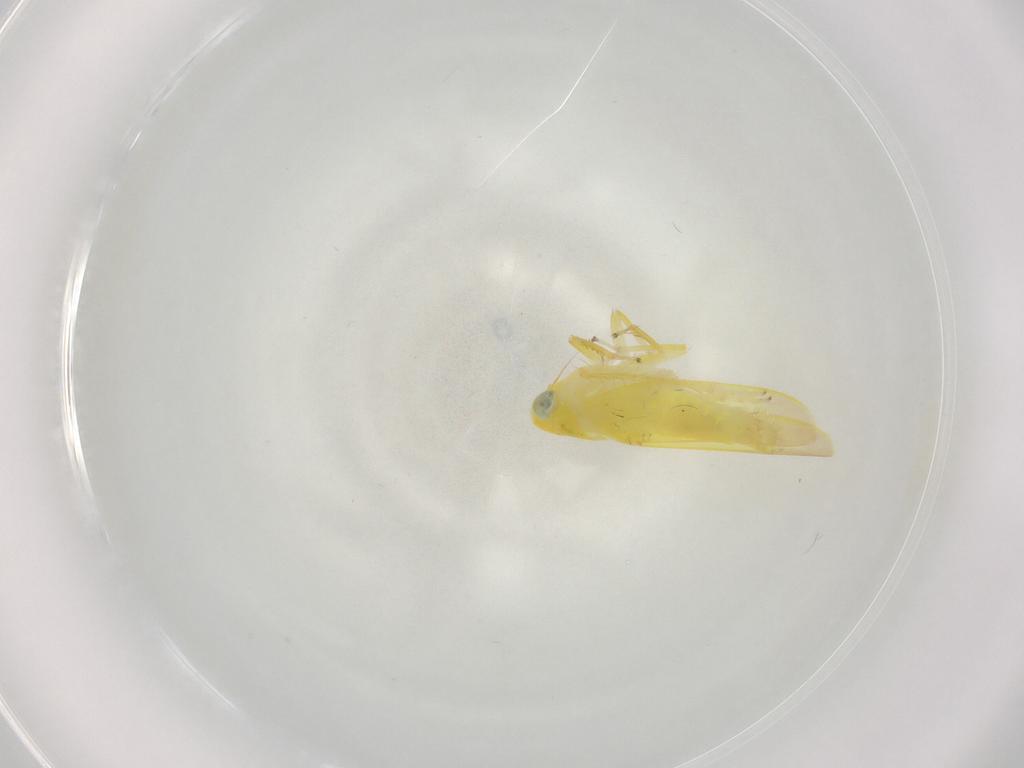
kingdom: Animalia
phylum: Arthropoda
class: Insecta
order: Hemiptera
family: Cicadellidae
